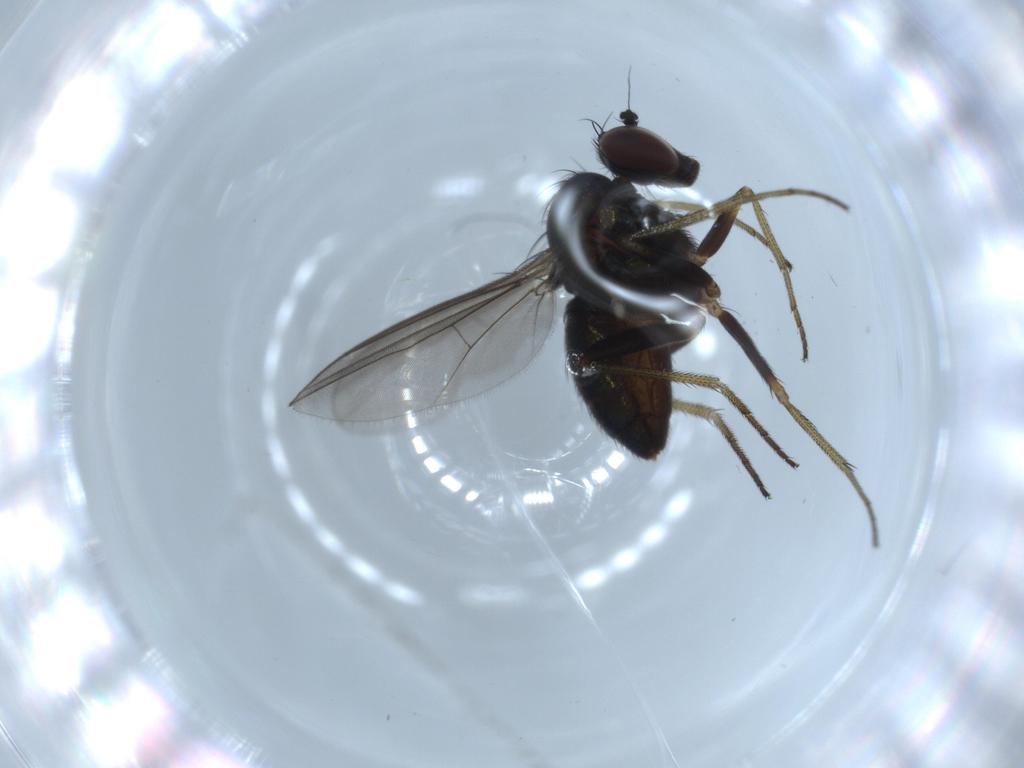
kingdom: Animalia
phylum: Arthropoda
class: Insecta
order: Diptera
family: Dolichopodidae
